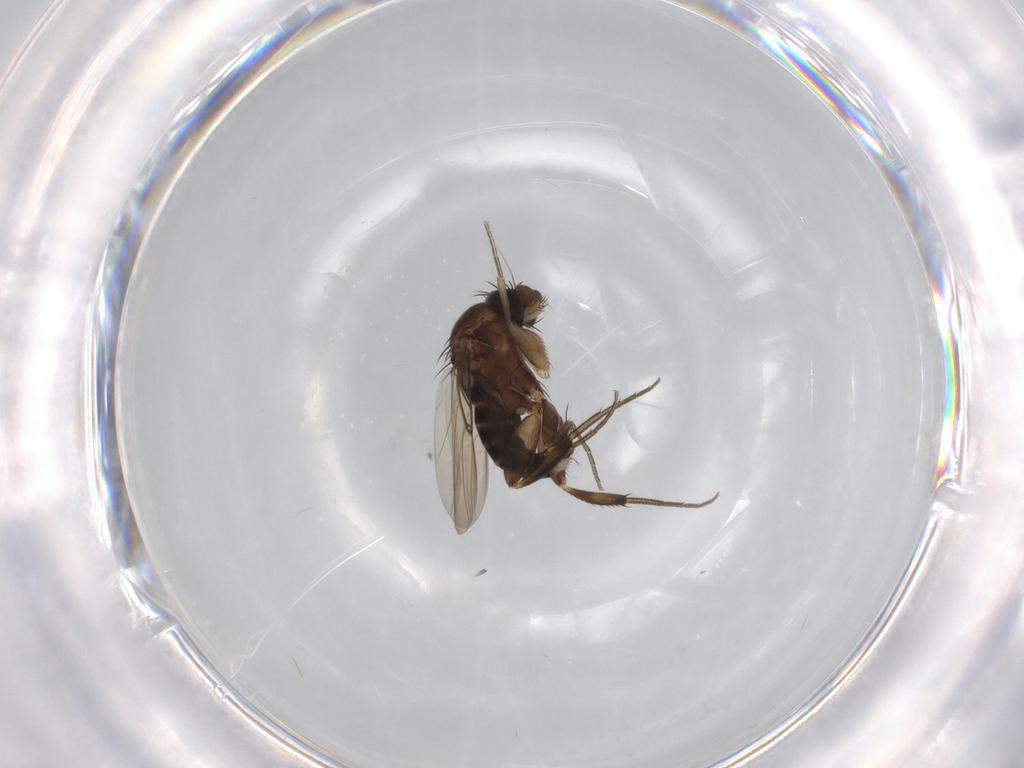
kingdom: Animalia
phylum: Arthropoda
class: Insecta
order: Diptera
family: Phoridae
